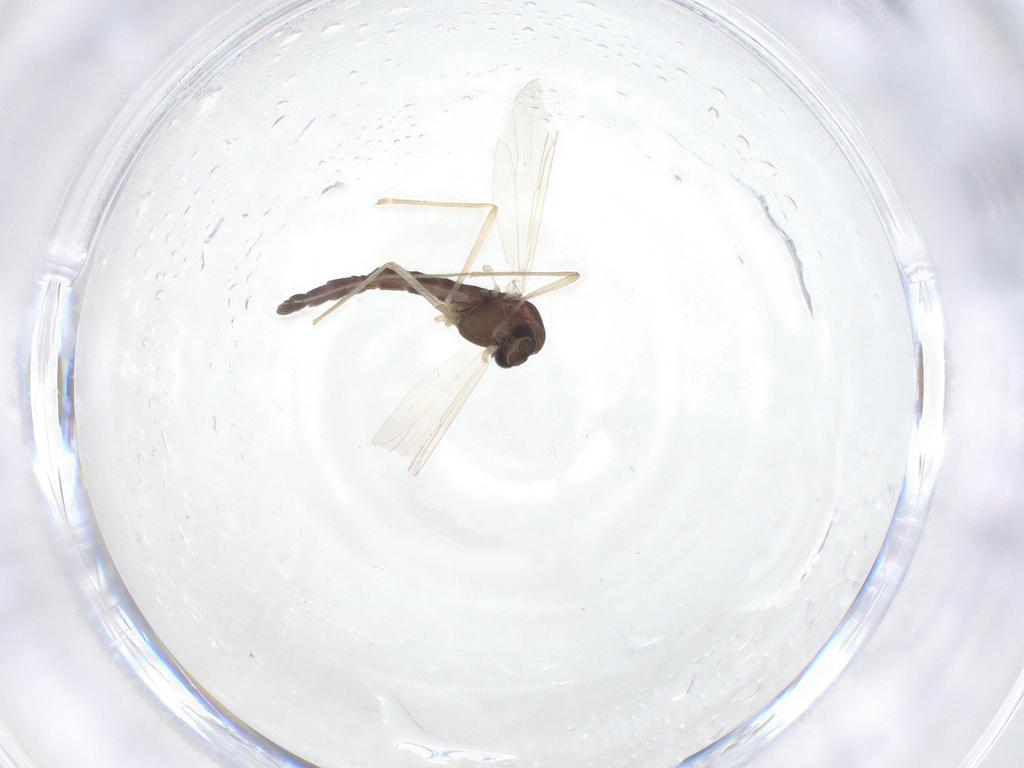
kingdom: Animalia
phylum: Arthropoda
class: Insecta
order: Diptera
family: Chironomidae
